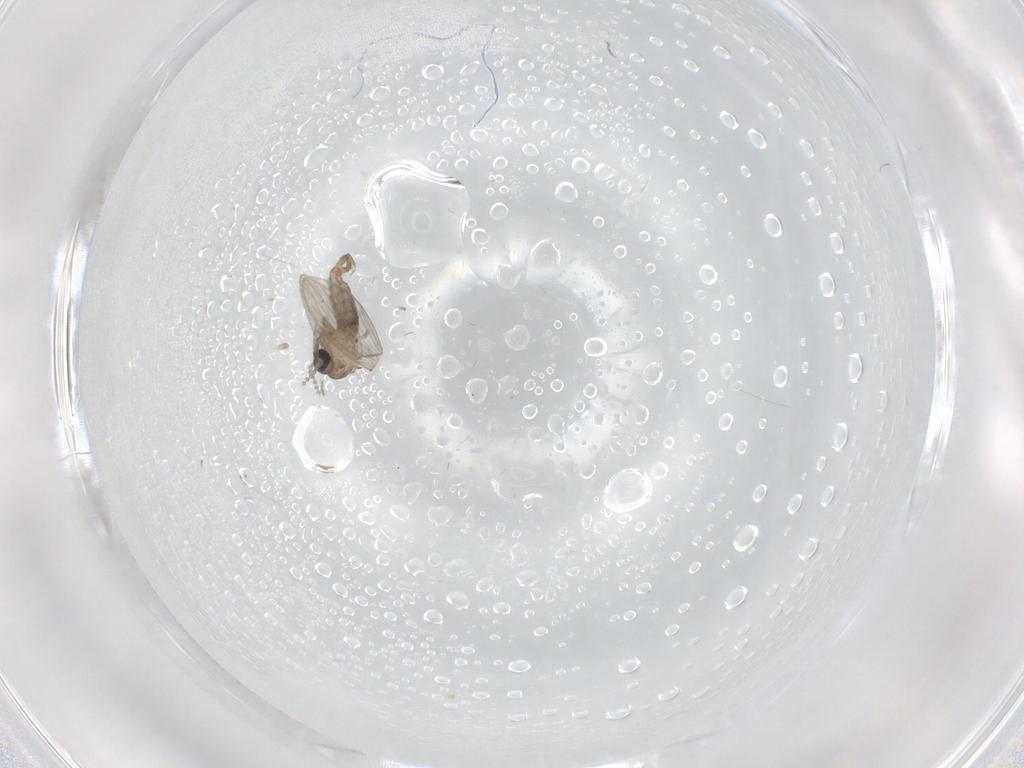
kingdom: Animalia
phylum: Arthropoda
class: Insecta
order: Diptera
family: Psychodidae
